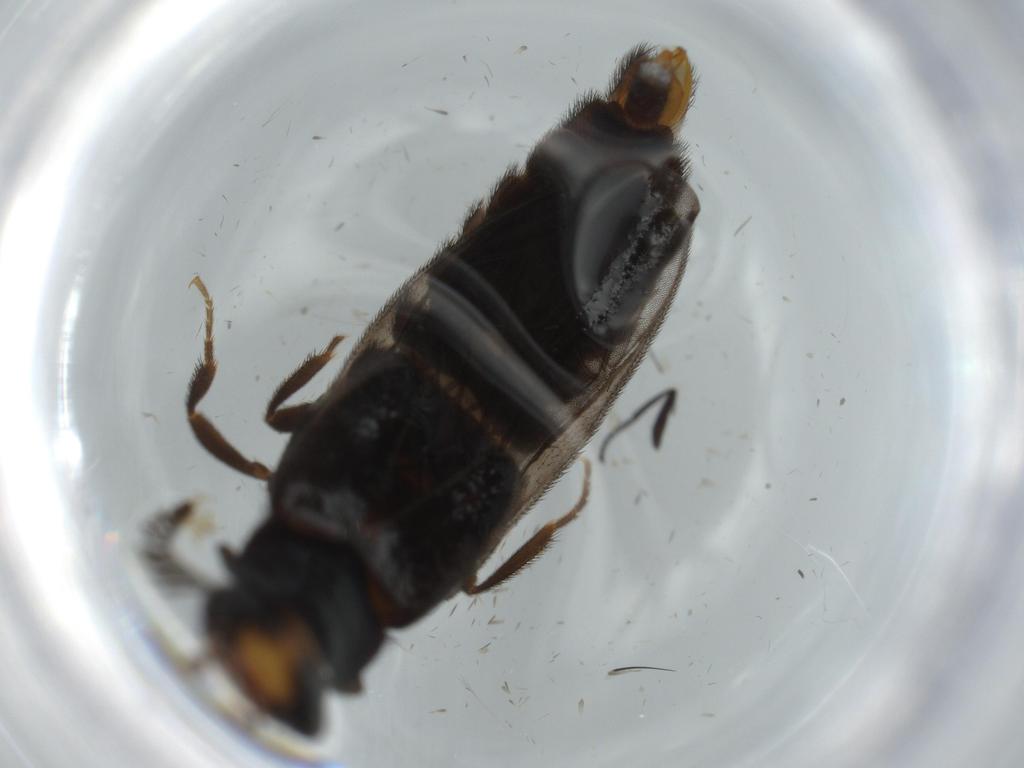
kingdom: Animalia
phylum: Arthropoda
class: Insecta
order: Coleoptera
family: Phengodidae
